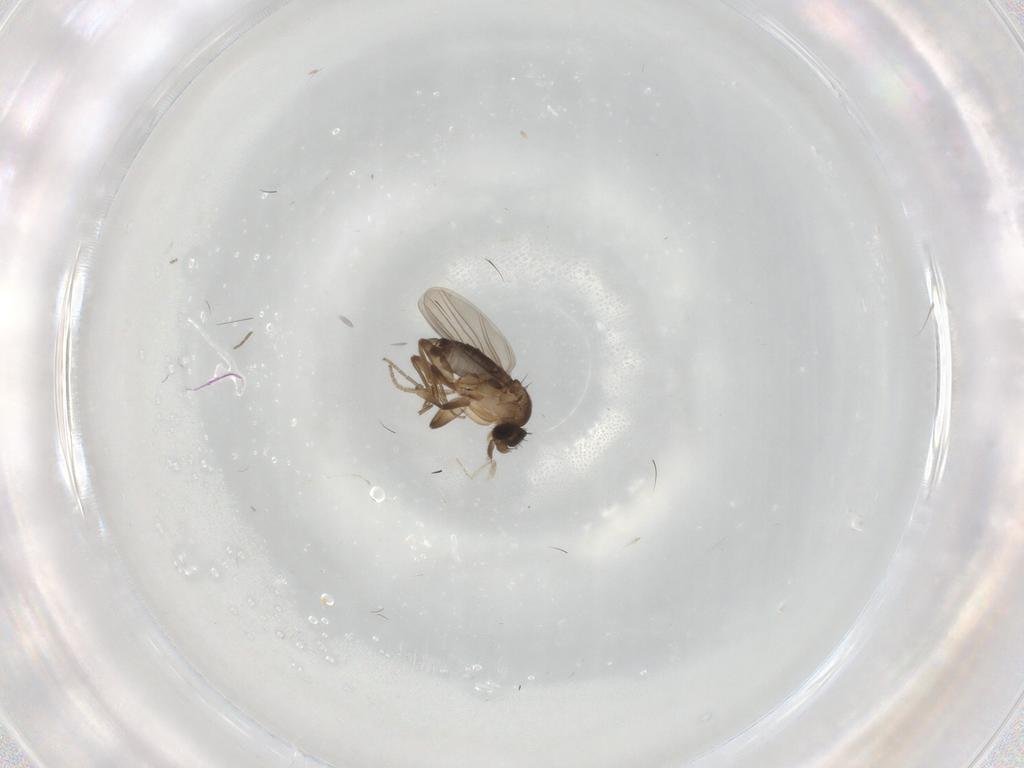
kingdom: Animalia
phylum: Arthropoda
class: Insecta
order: Diptera
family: Cecidomyiidae
